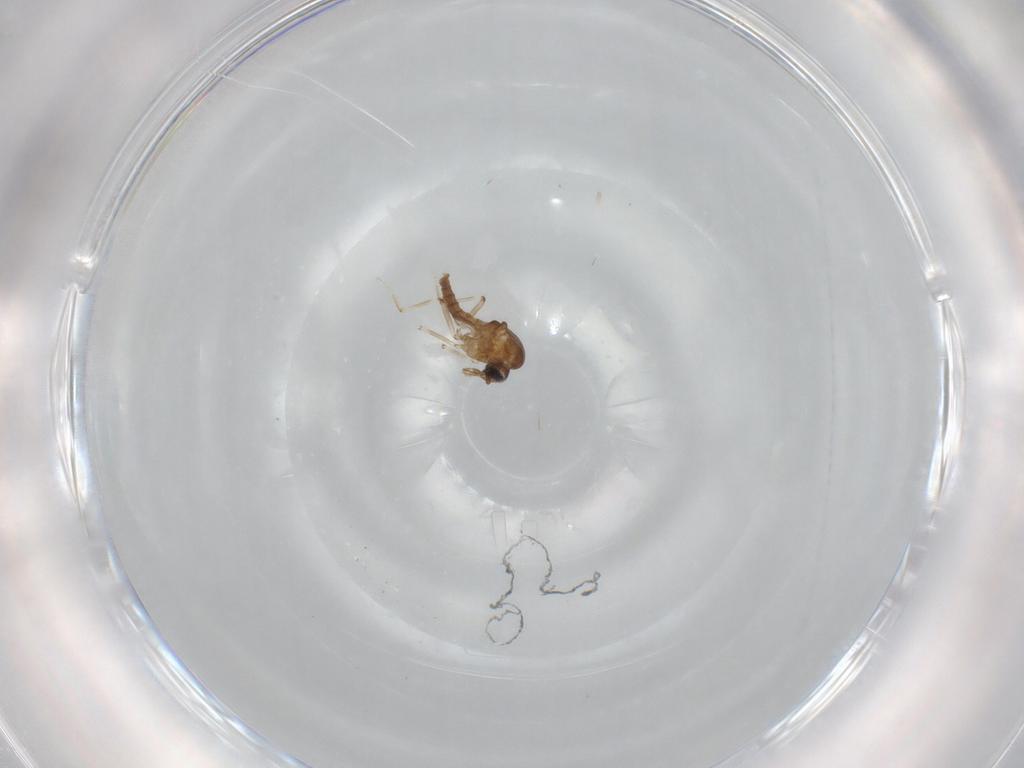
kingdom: Animalia
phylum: Arthropoda
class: Insecta
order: Diptera
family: Ceratopogonidae
